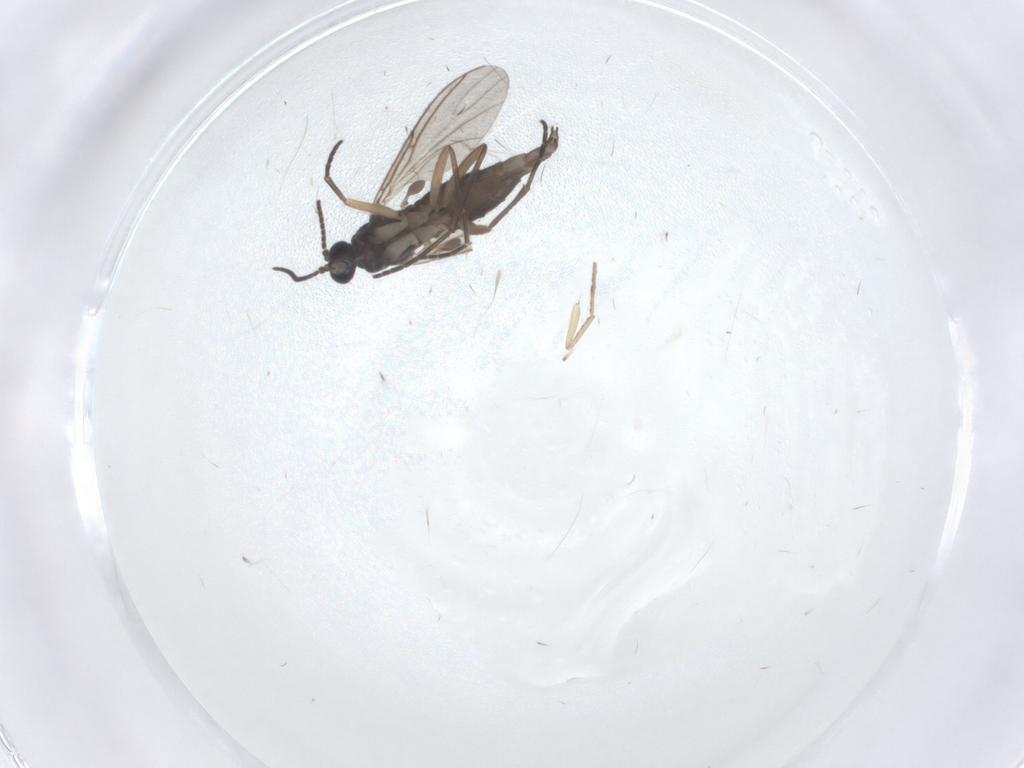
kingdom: Animalia
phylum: Arthropoda
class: Insecta
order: Diptera
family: Sciaridae
